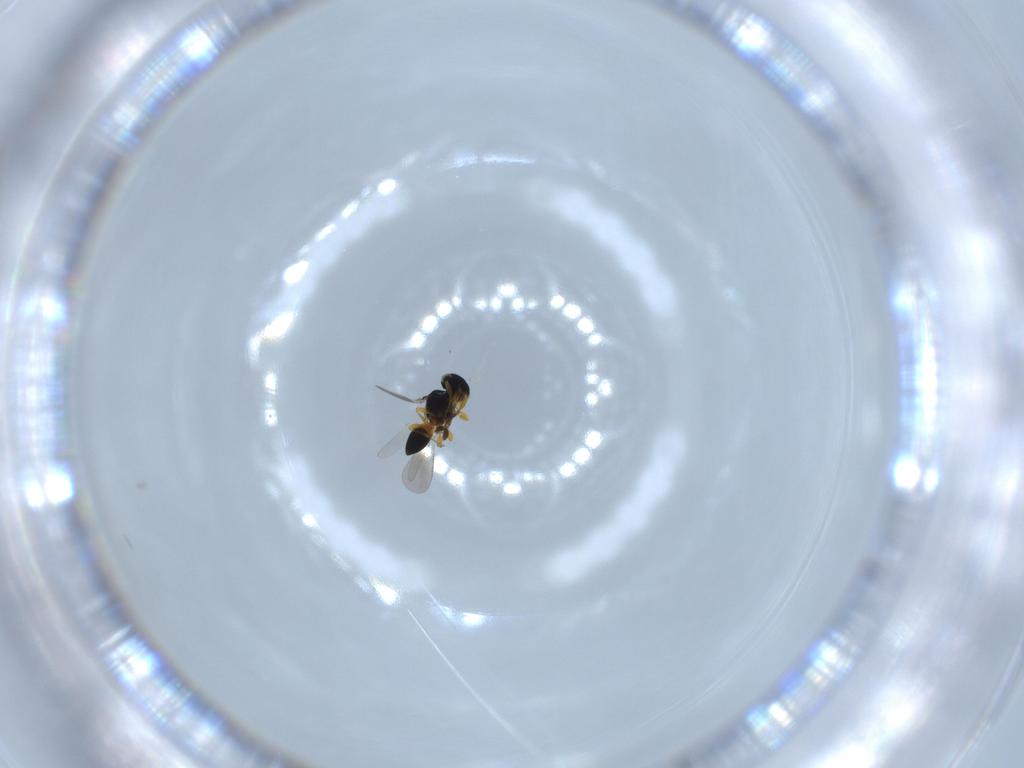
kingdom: Animalia
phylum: Arthropoda
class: Insecta
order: Hymenoptera
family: Platygastridae
